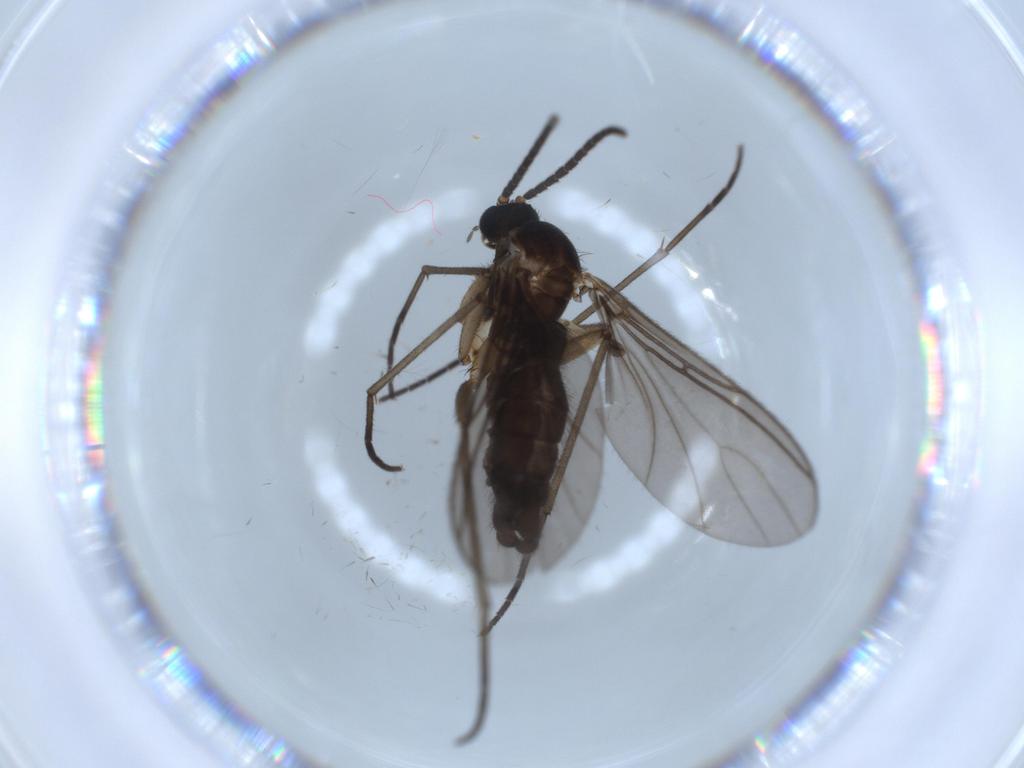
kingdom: Animalia
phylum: Arthropoda
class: Insecta
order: Diptera
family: Sciaridae
